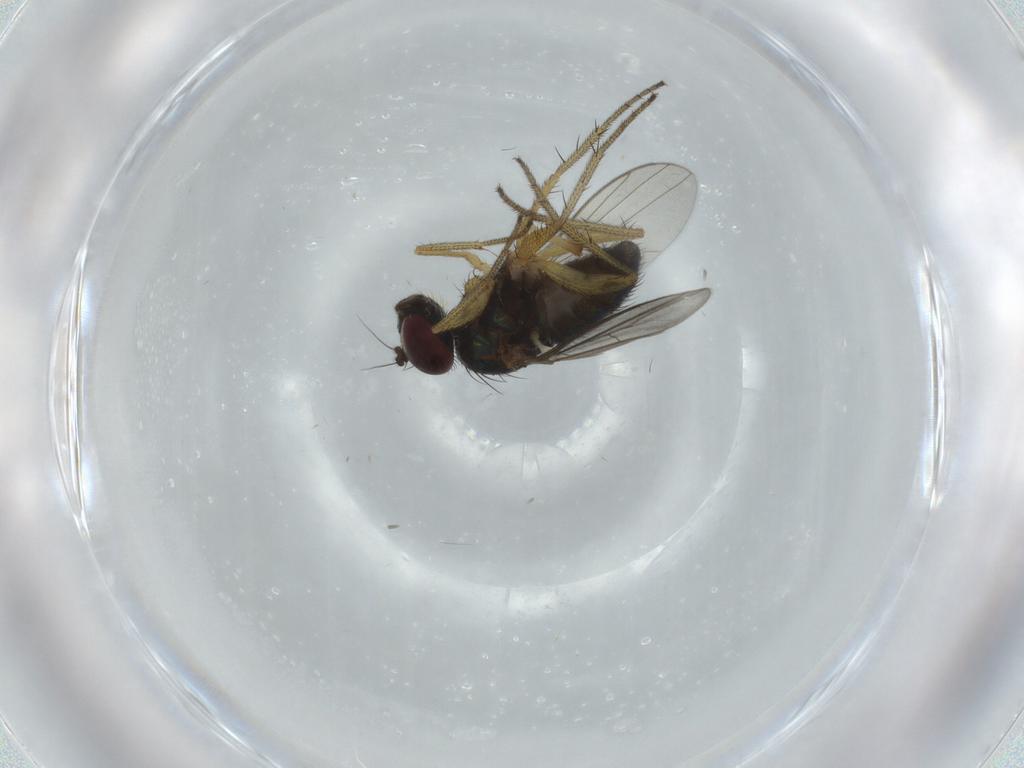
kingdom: Animalia
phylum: Arthropoda
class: Insecta
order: Diptera
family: Dolichopodidae
